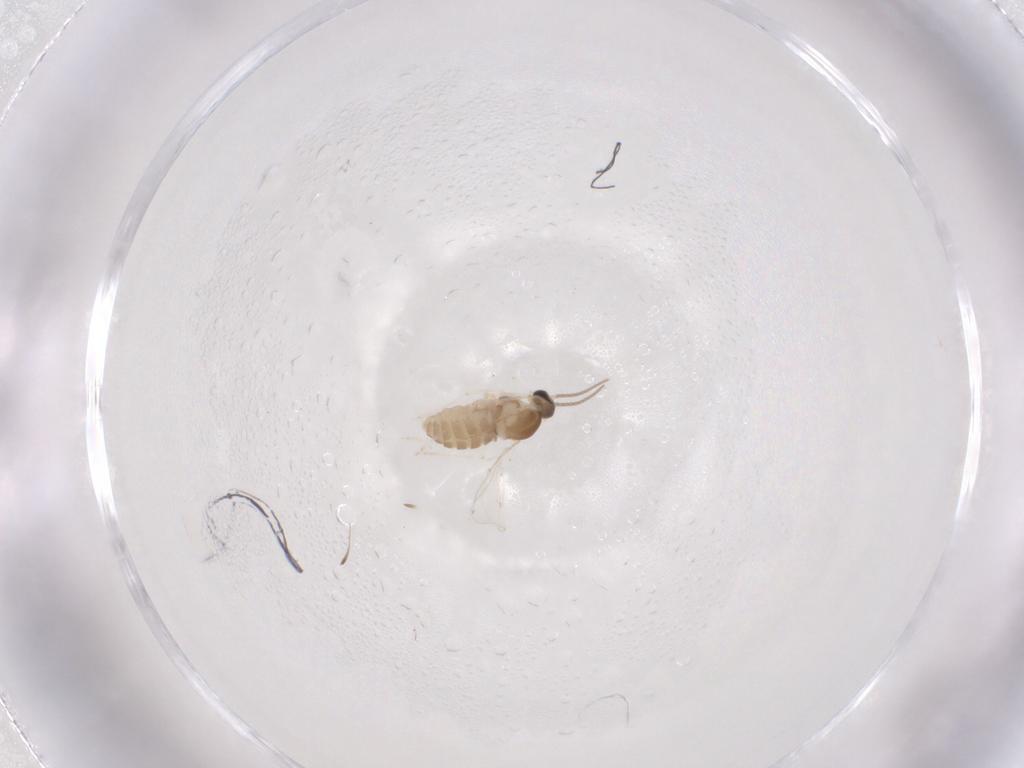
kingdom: Animalia
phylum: Arthropoda
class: Insecta
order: Diptera
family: Cecidomyiidae
